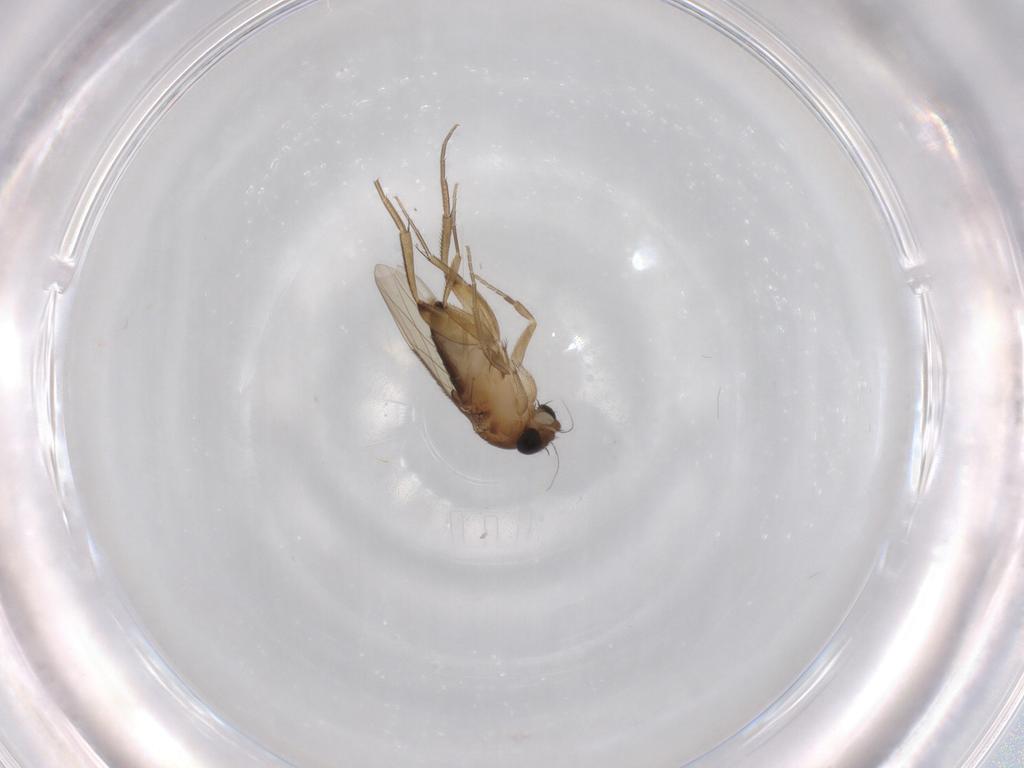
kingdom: Animalia
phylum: Arthropoda
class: Insecta
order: Diptera
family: Phoridae
